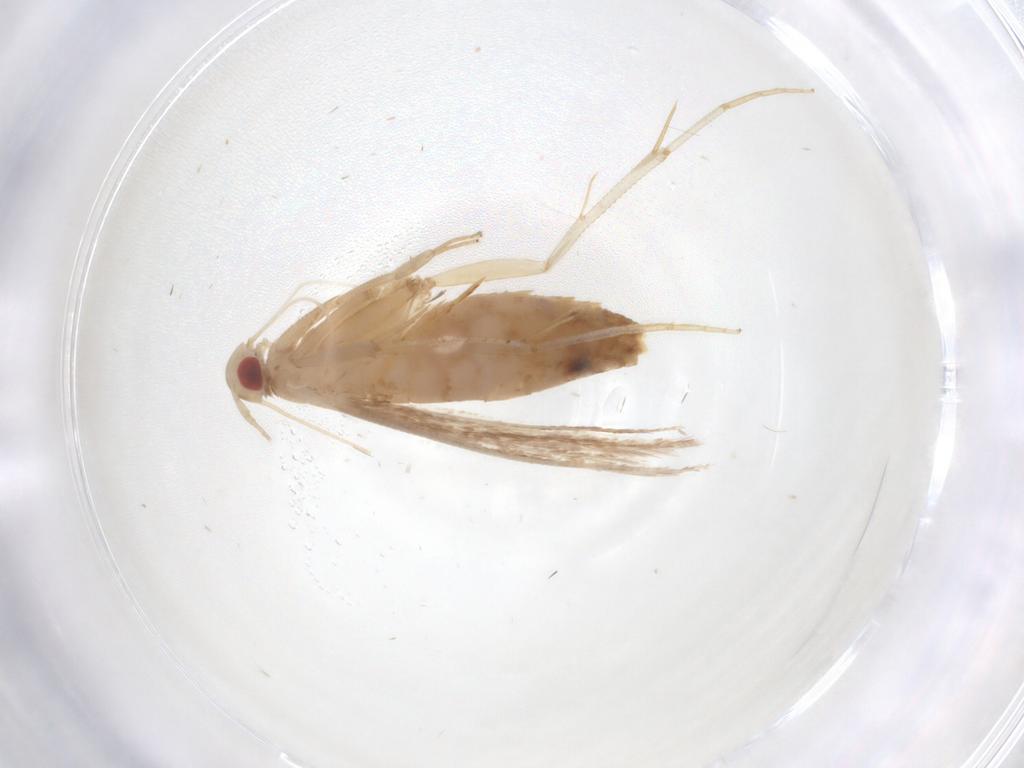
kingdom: Animalia
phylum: Arthropoda
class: Insecta
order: Lepidoptera
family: Cosmopterigidae
